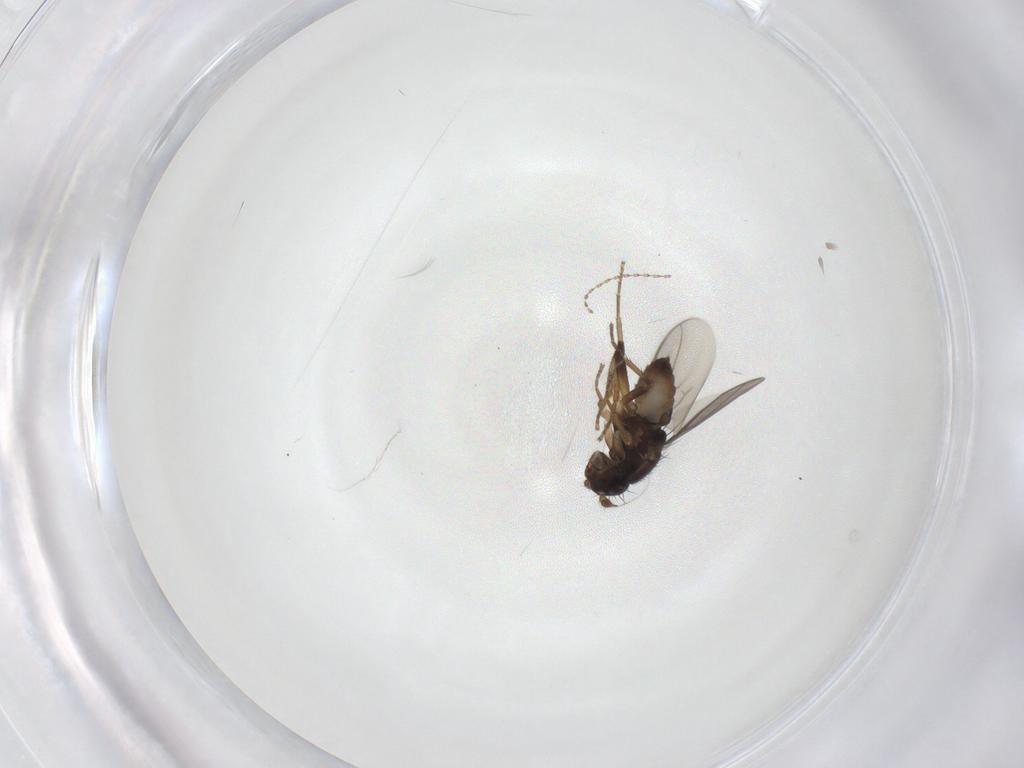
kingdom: Animalia
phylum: Arthropoda
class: Insecta
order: Diptera
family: Sphaeroceridae
